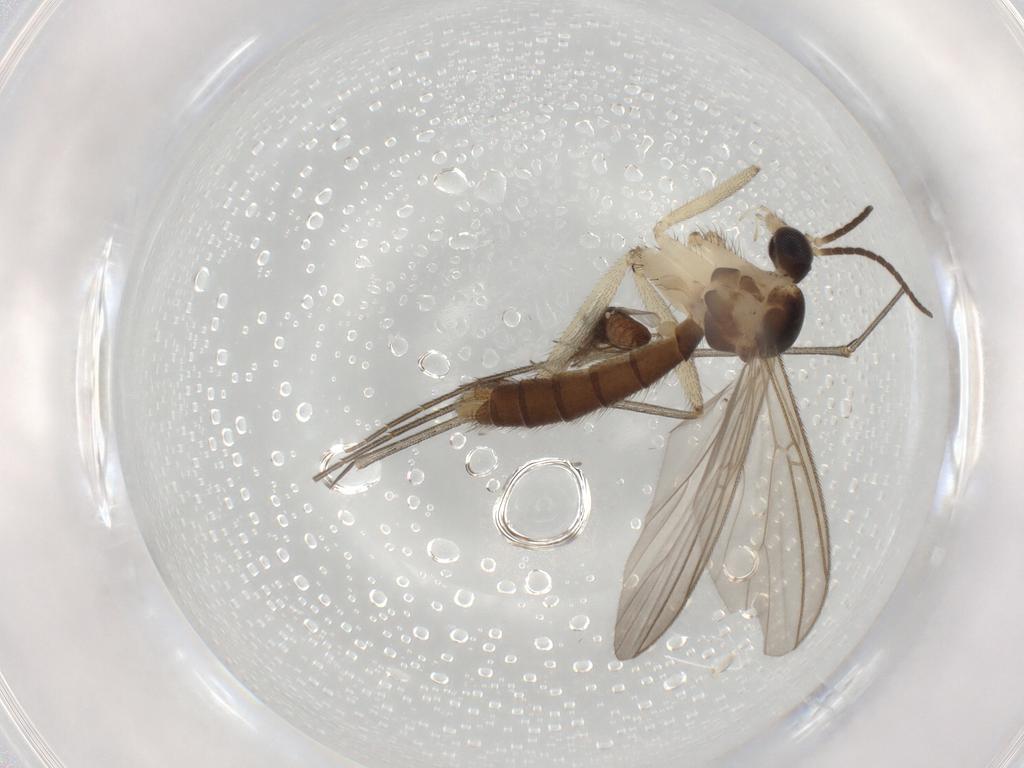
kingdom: Animalia
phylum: Arthropoda
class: Insecta
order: Diptera
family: Mycetophilidae
